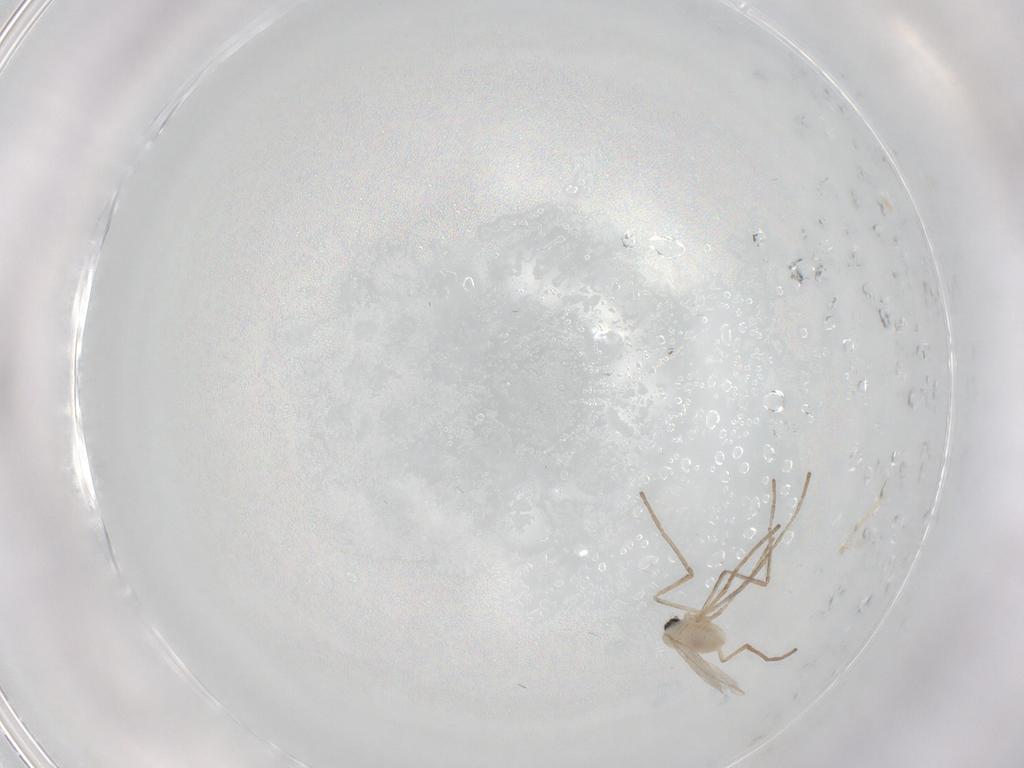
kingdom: Animalia
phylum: Arthropoda
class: Insecta
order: Diptera
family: Cecidomyiidae
